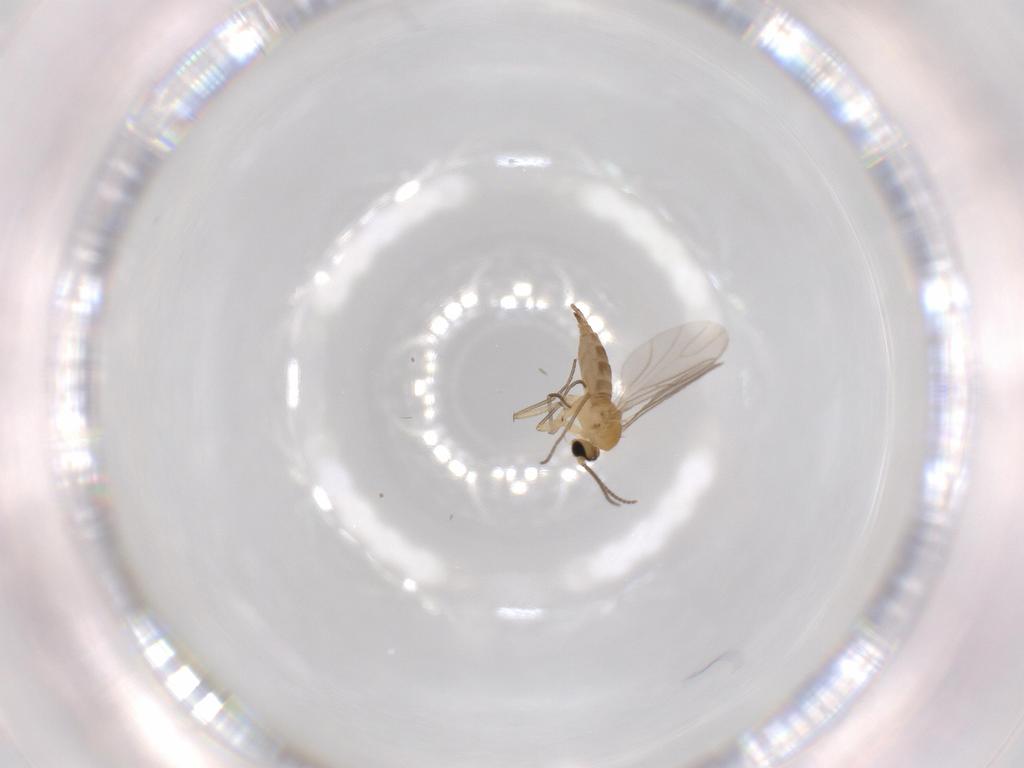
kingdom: Animalia
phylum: Arthropoda
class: Insecta
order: Diptera
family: Sciaridae
